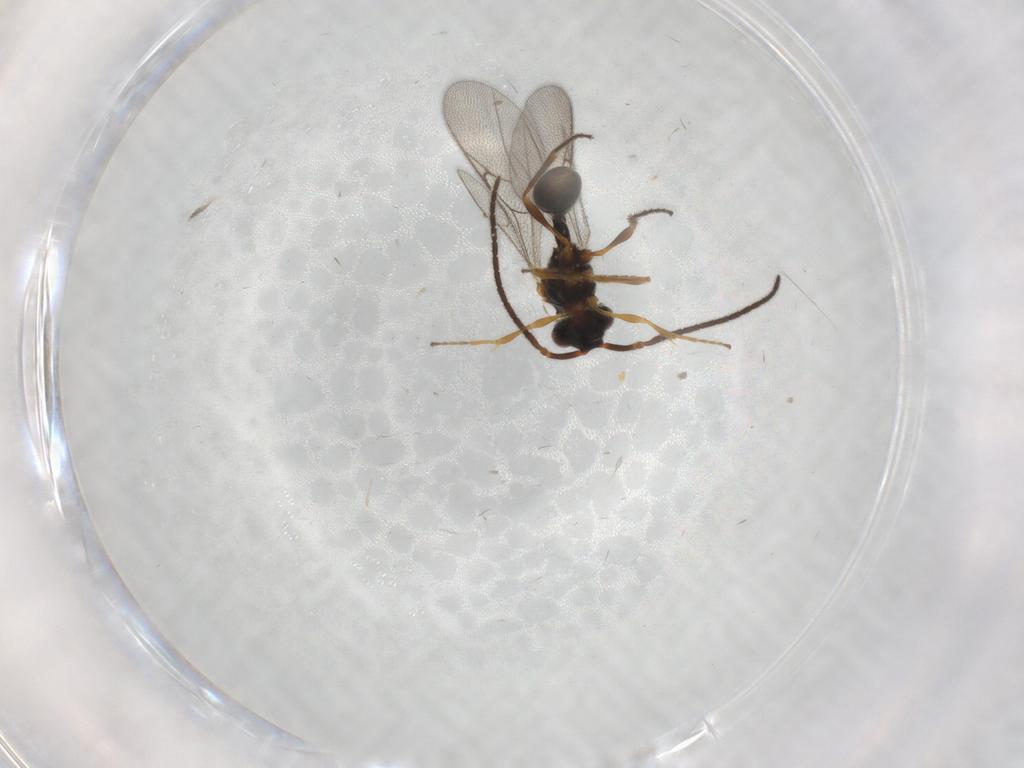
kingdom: Animalia
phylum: Arthropoda
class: Insecta
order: Hymenoptera
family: Diapriidae
